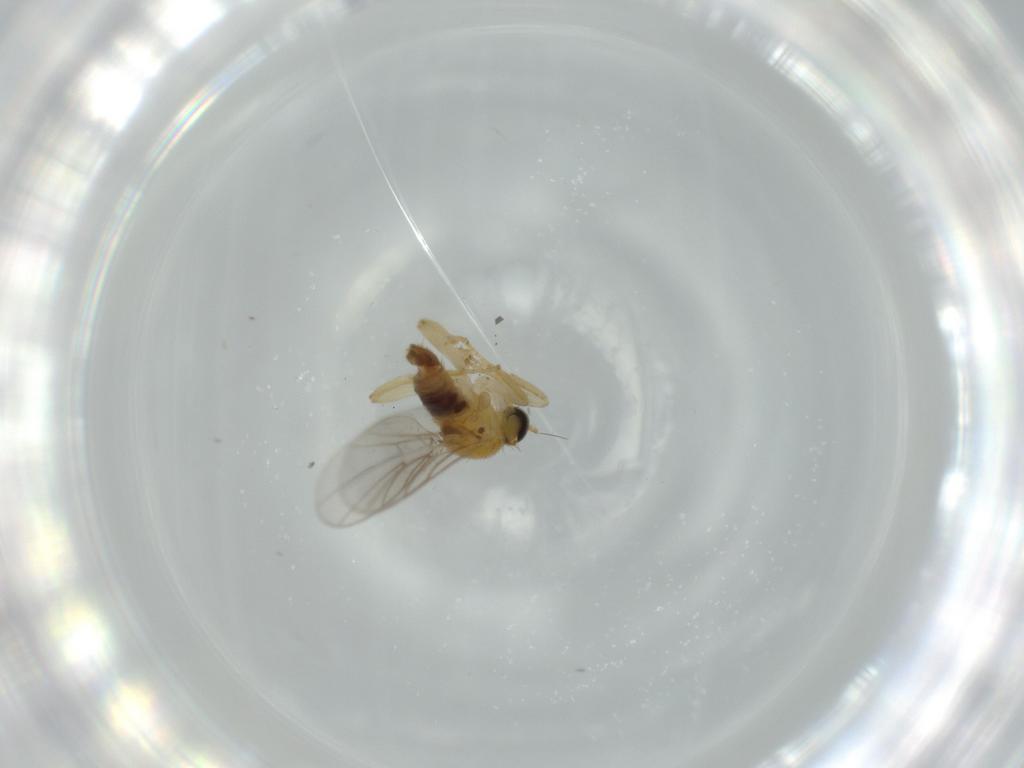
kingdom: Animalia
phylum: Arthropoda
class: Insecta
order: Diptera
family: Hybotidae
